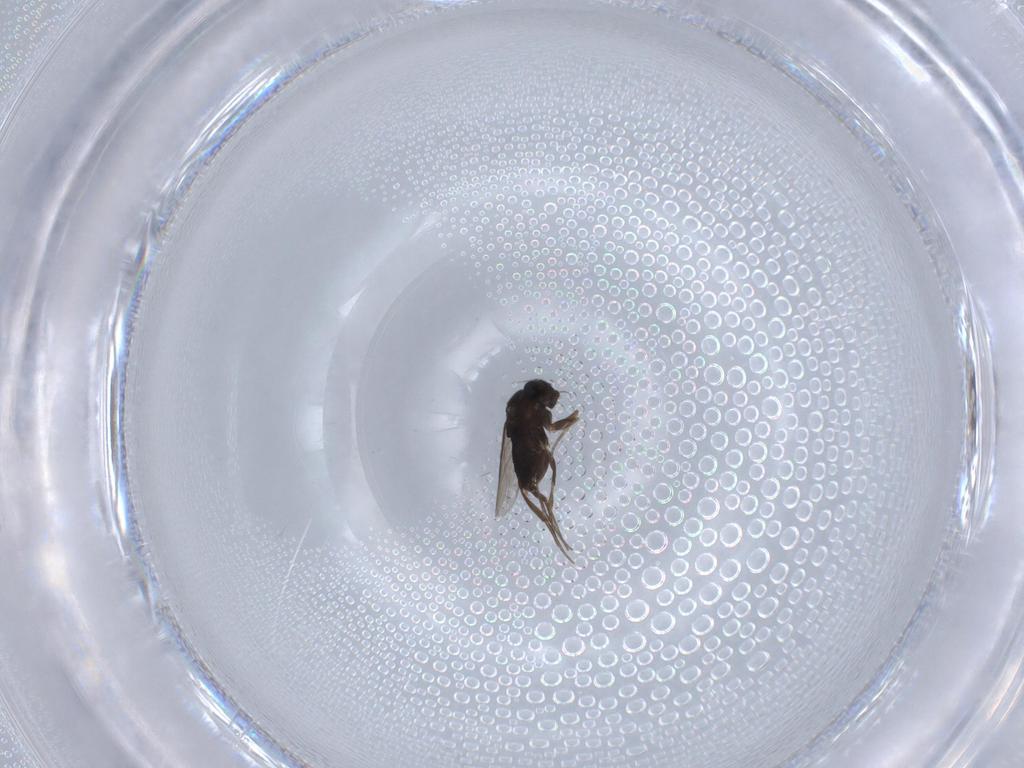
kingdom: Animalia
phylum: Arthropoda
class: Insecta
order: Diptera
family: Phoridae
